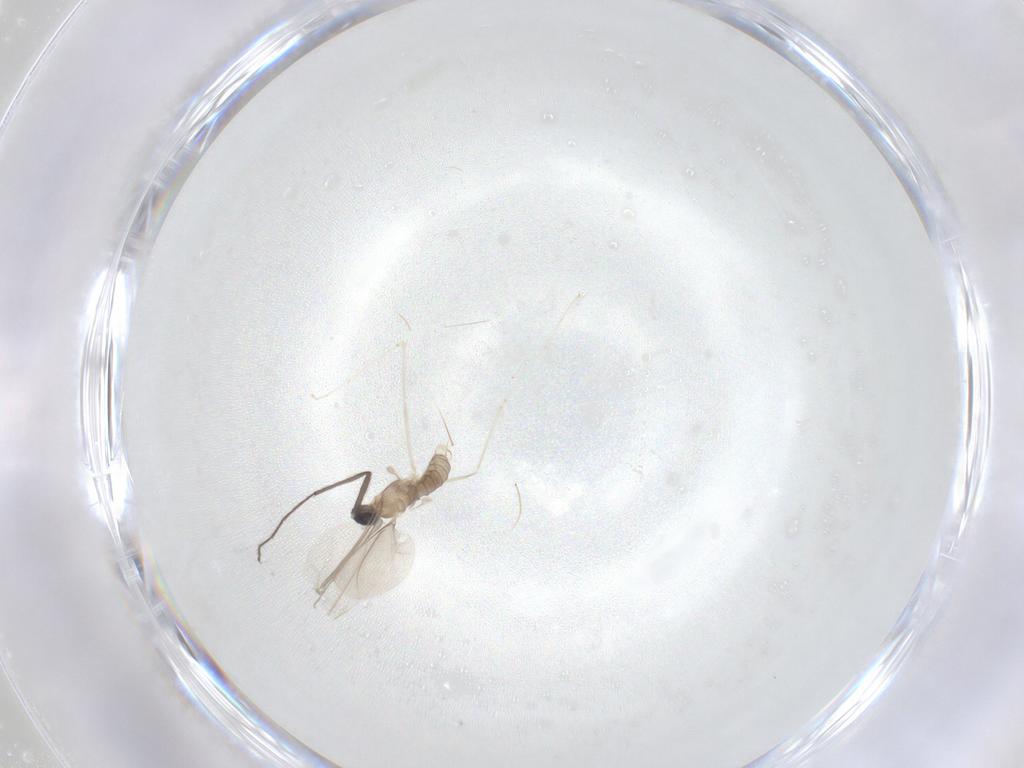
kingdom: Animalia
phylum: Arthropoda
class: Insecta
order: Diptera
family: Cecidomyiidae
